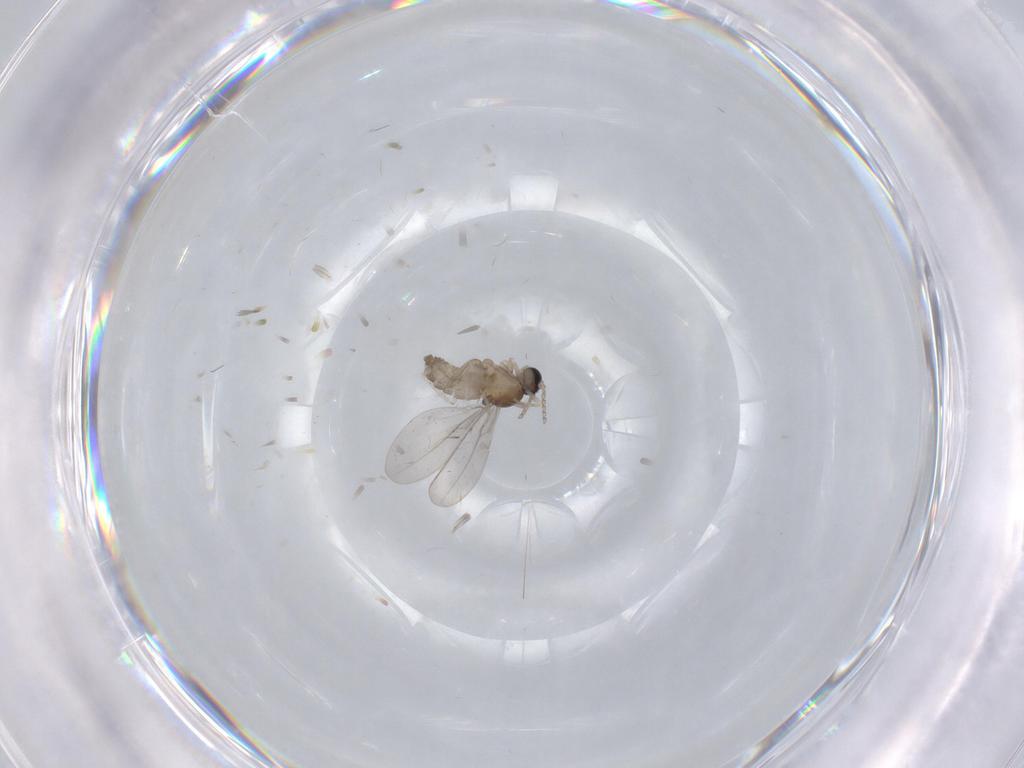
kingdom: Animalia
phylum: Arthropoda
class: Insecta
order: Diptera
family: Cecidomyiidae
